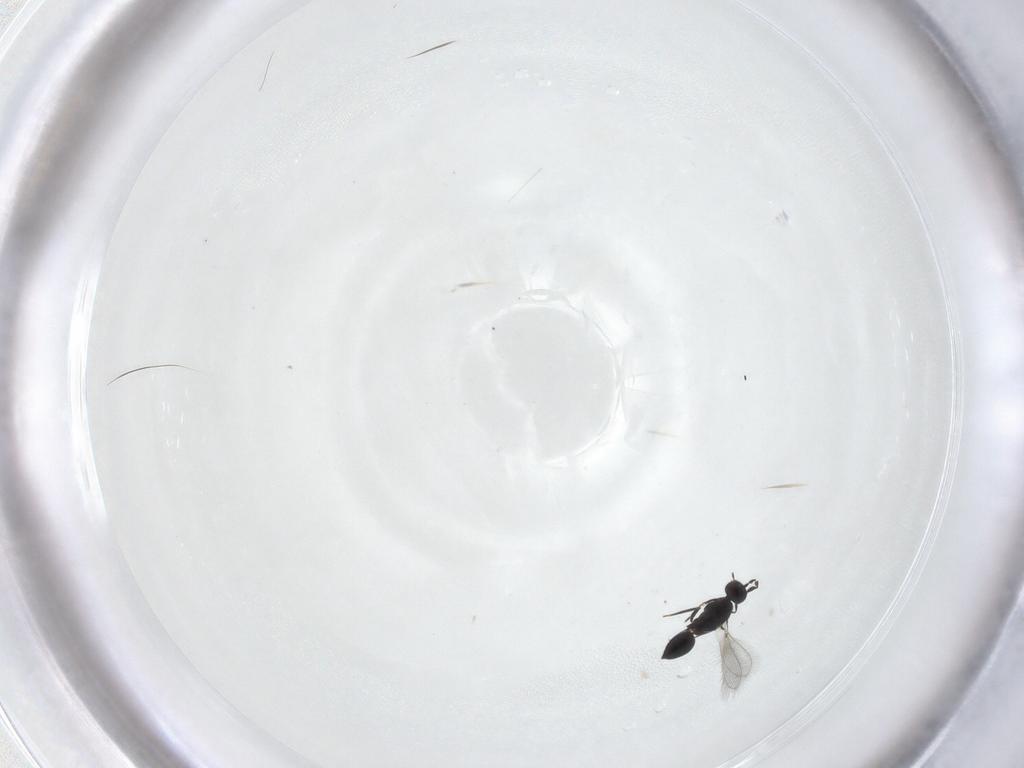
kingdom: Animalia
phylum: Arthropoda
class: Insecta
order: Hymenoptera
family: Mymaridae
